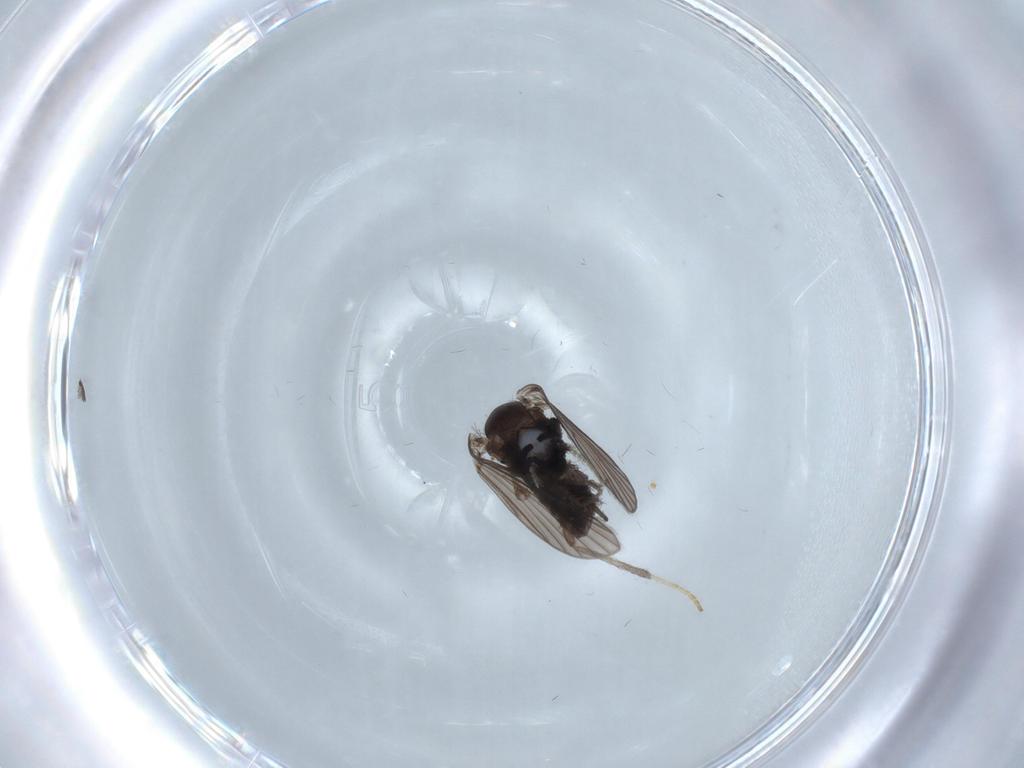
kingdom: Animalia
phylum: Arthropoda
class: Insecta
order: Diptera
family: Psychodidae
